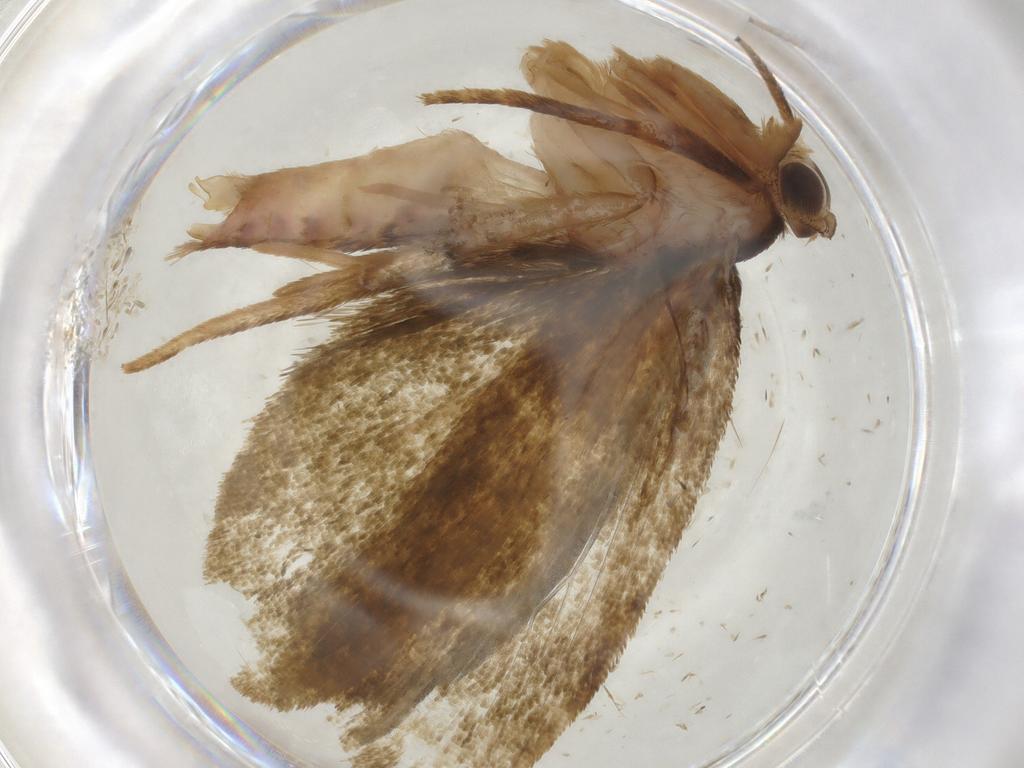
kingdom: Animalia
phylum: Arthropoda
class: Insecta
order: Lepidoptera
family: Geometridae
